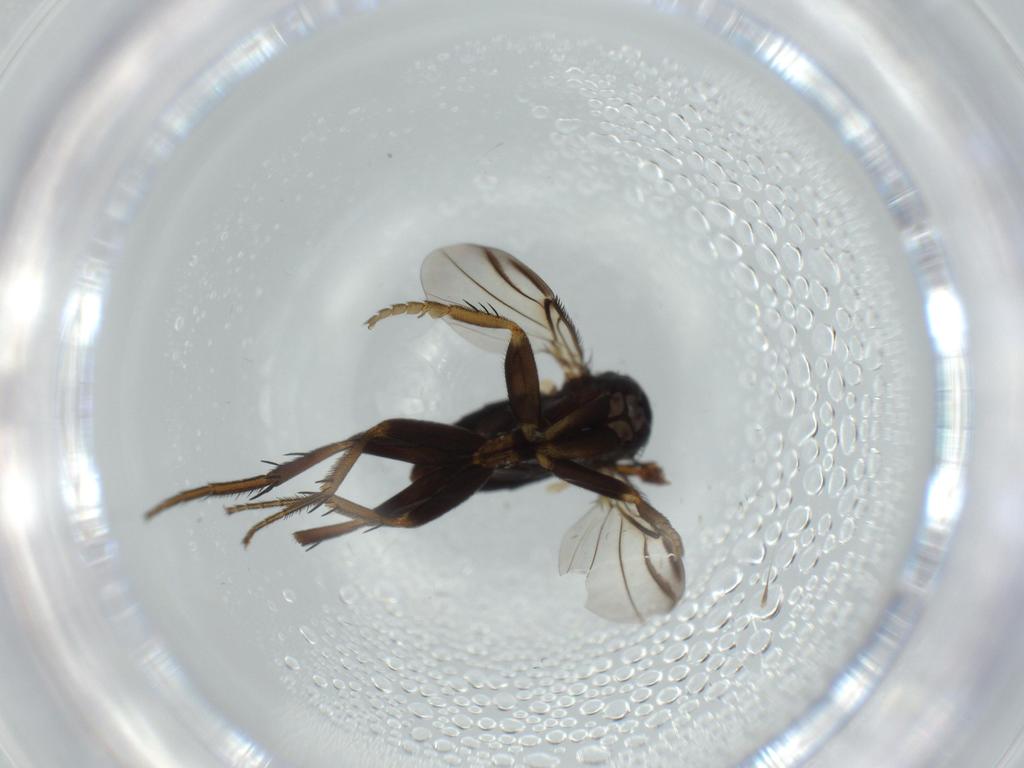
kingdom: Animalia
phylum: Arthropoda
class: Insecta
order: Diptera
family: Phoridae
